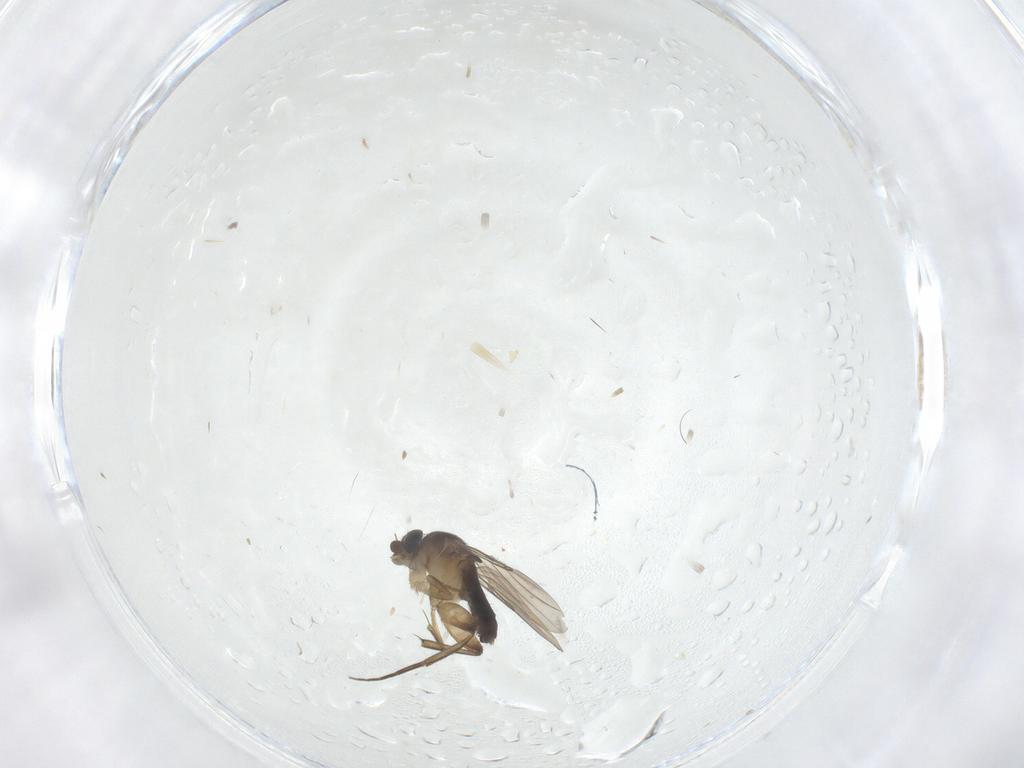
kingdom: Animalia
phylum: Arthropoda
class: Insecta
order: Diptera
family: Phoridae
